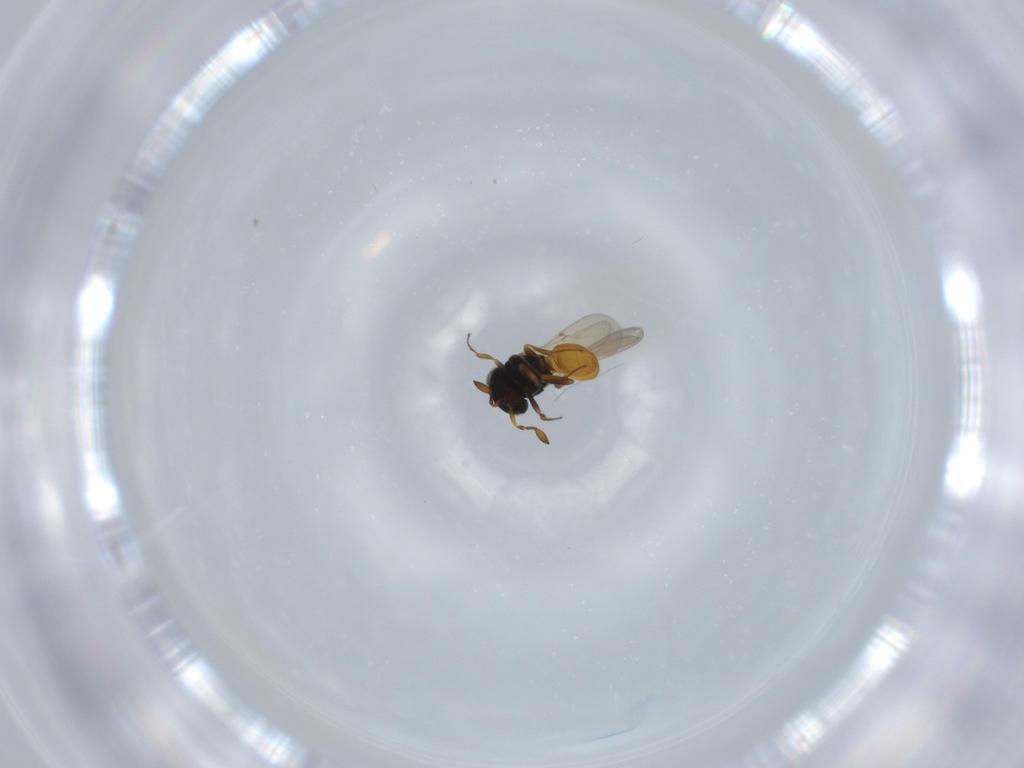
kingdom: Animalia
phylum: Arthropoda
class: Insecta
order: Hymenoptera
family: Scelionidae
